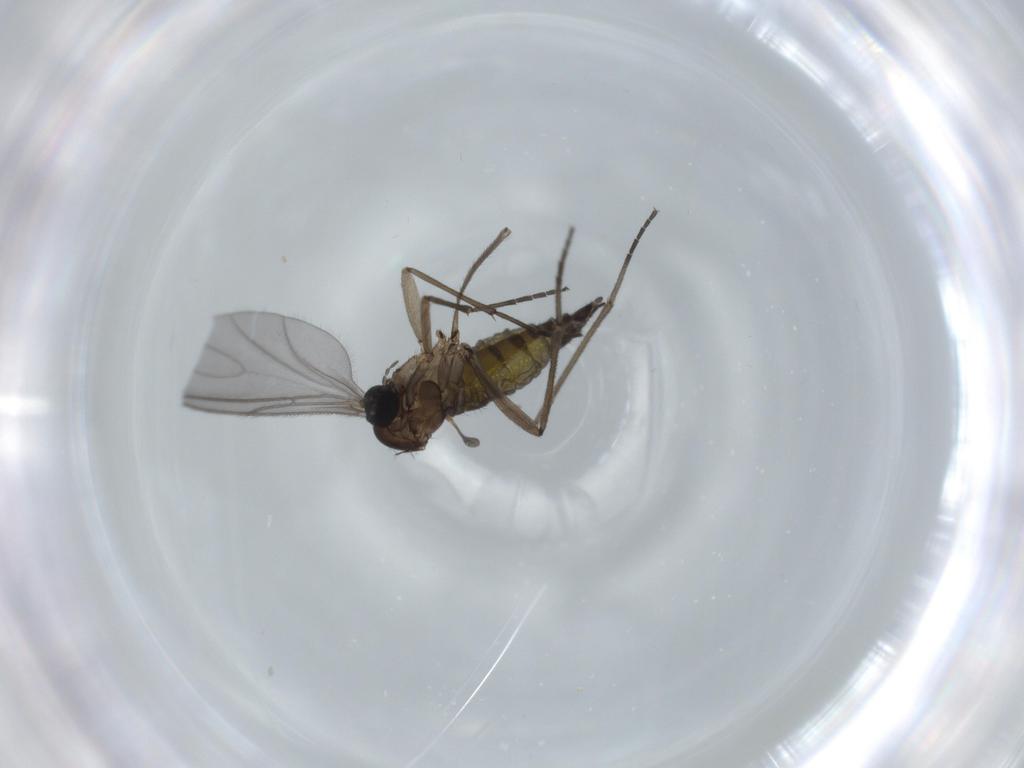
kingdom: Animalia
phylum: Arthropoda
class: Insecta
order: Diptera
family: Sciaridae
